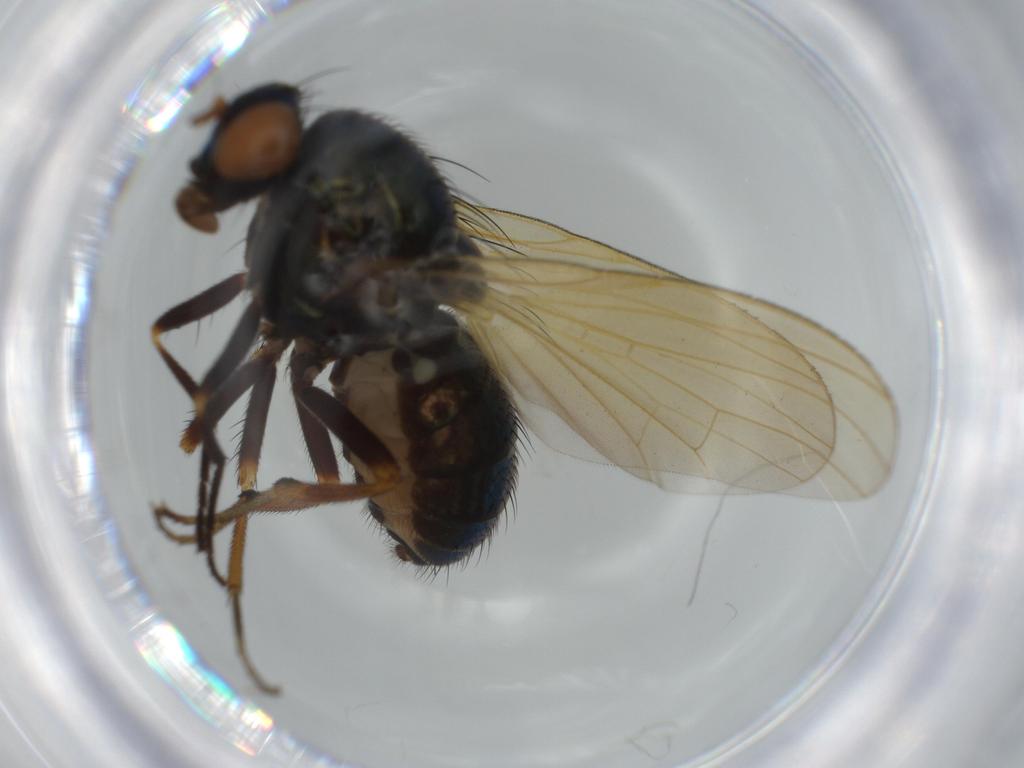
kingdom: Animalia
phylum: Arthropoda
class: Insecta
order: Diptera
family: Lauxaniidae
